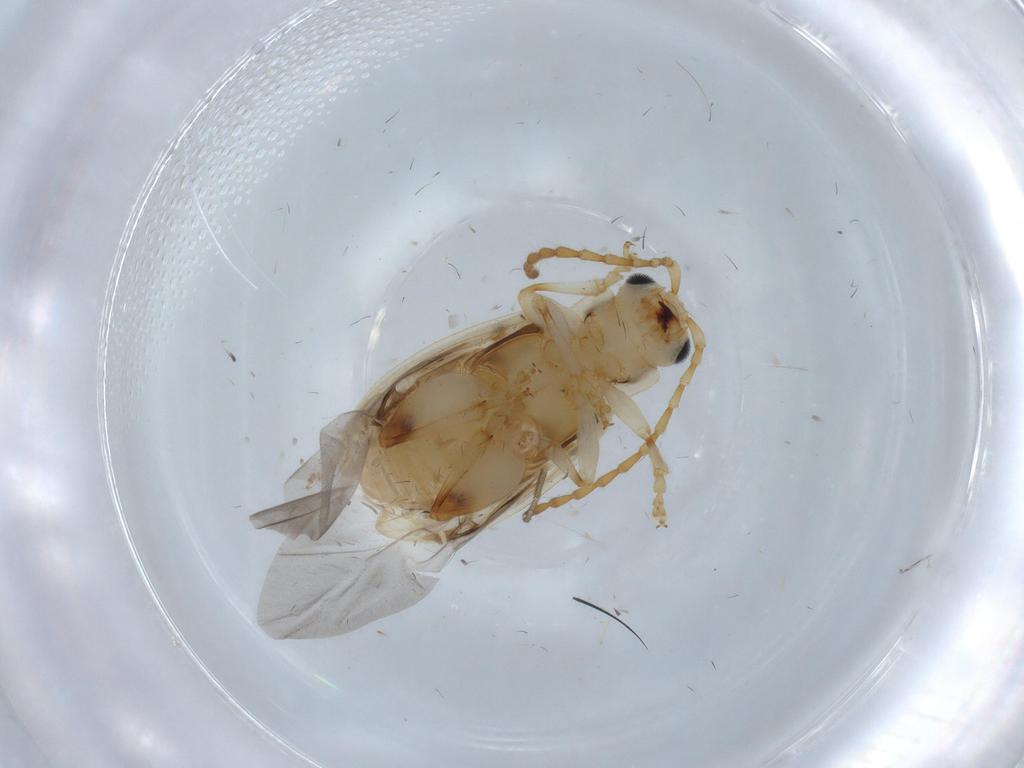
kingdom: Animalia
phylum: Arthropoda
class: Insecta
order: Coleoptera
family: Chrysomelidae
